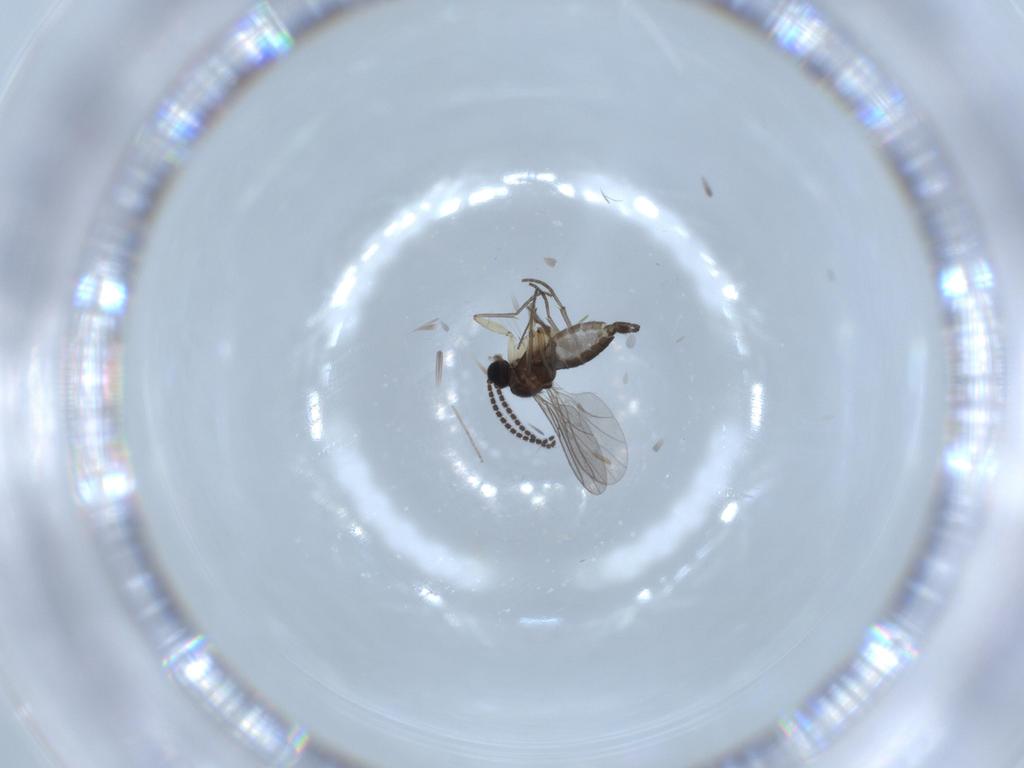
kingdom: Animalia
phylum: Arthropoda
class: Insecta
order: Diptera
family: Sciaridae
